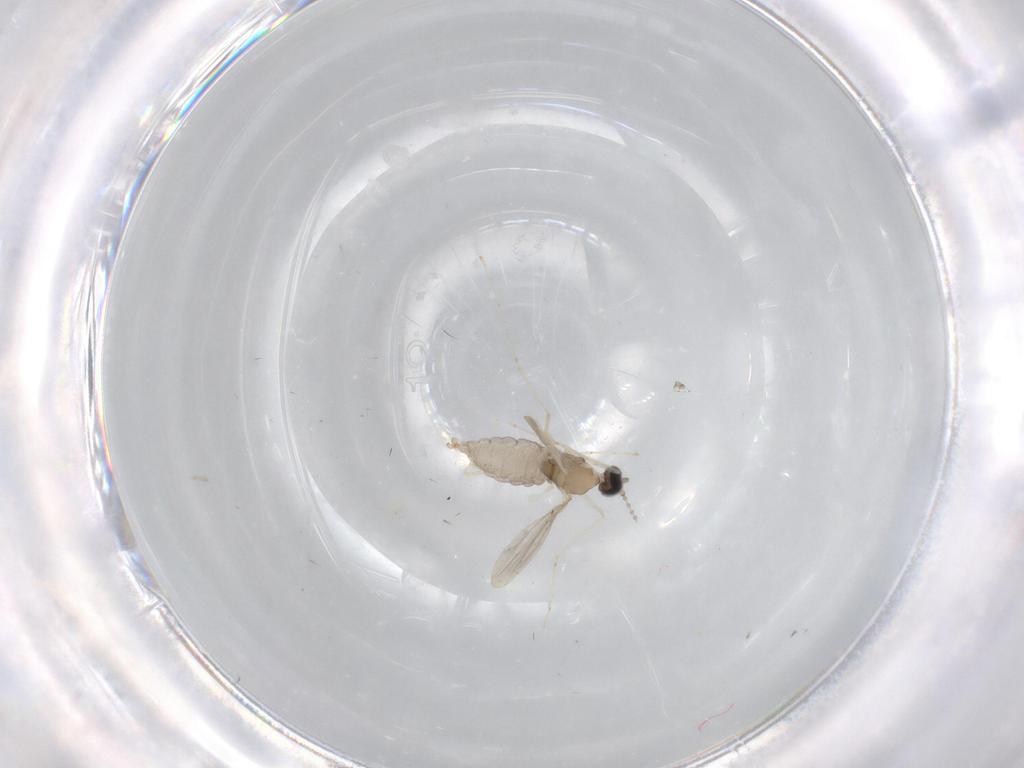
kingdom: Animalia
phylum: Arthropoda
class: Insecta
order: Diptera
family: Cecidomyiidae
